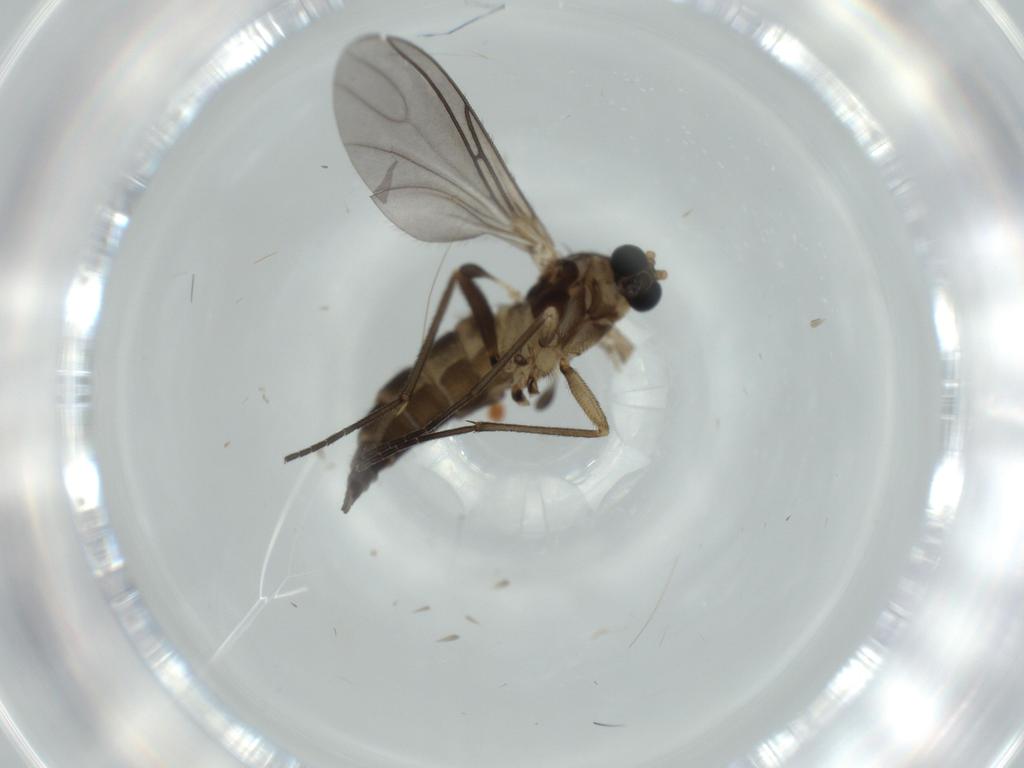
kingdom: Animalia
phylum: Arthropoda
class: Insecta
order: Diptera
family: Sciaridae
